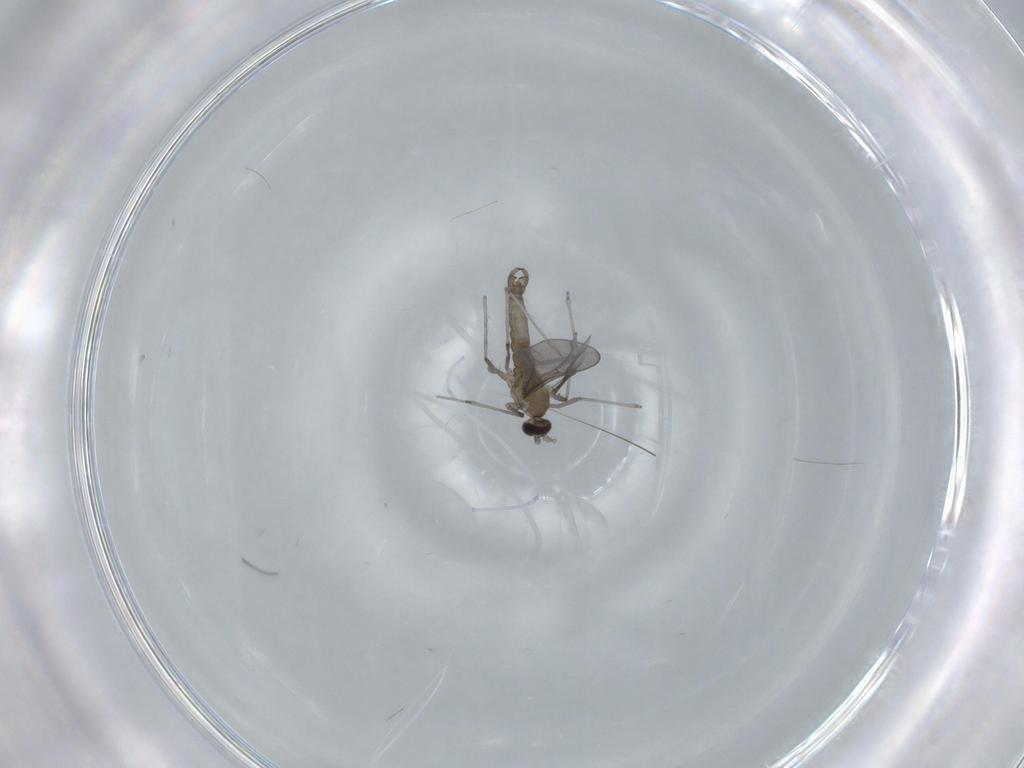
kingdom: Animalia
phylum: Arthropoda
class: Insecta
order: Diptera
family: Cecidomyiidae
